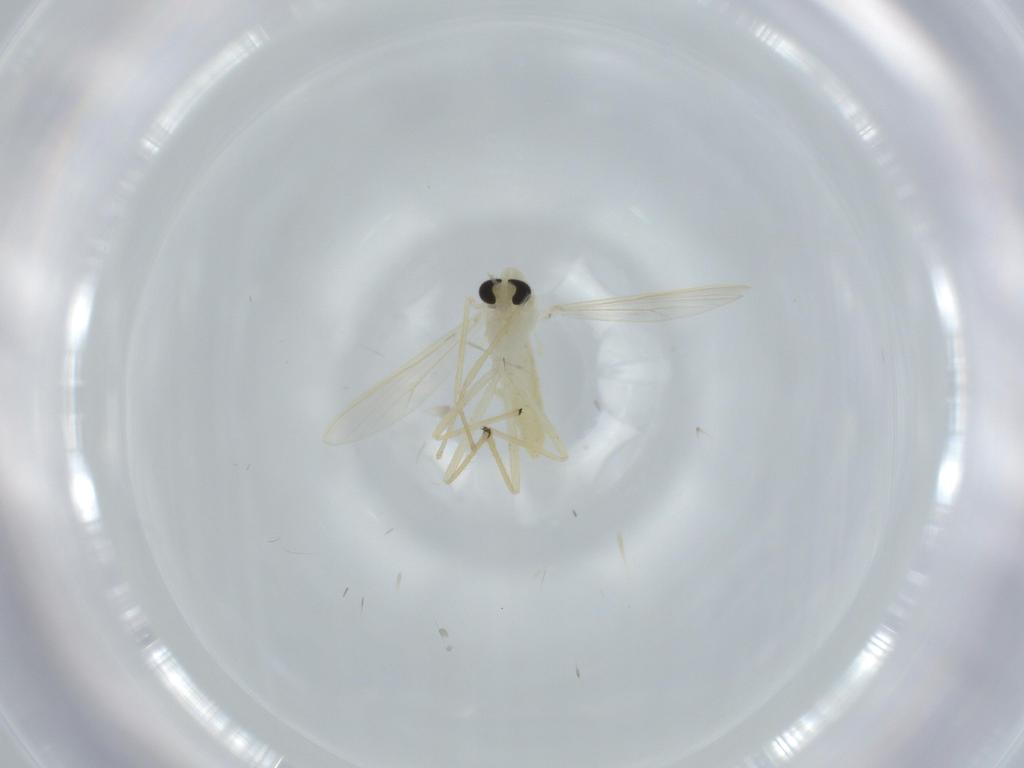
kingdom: Animalia
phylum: Arthropoda
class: Insecta
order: Diptera
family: Chironomidae
